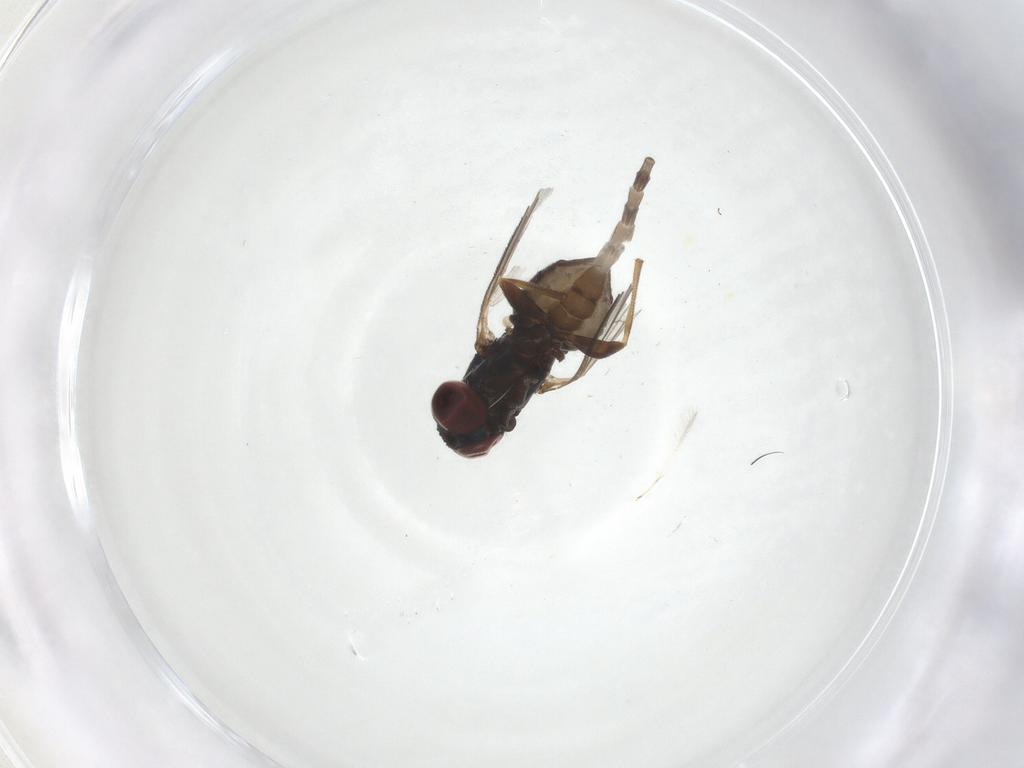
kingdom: Animalia
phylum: Arthropoda
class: Insecta
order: Diptera
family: Dolichopodidae
